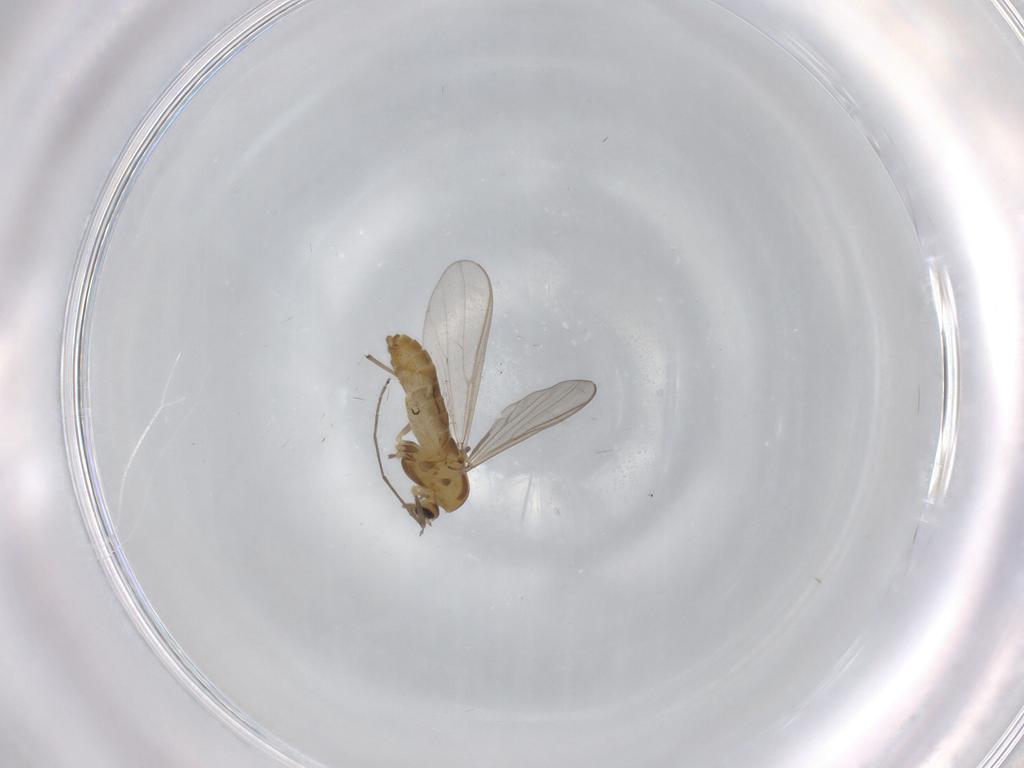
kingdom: Animalia
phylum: Arthropoda
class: Insecta
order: Diptera
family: Chironomidae
